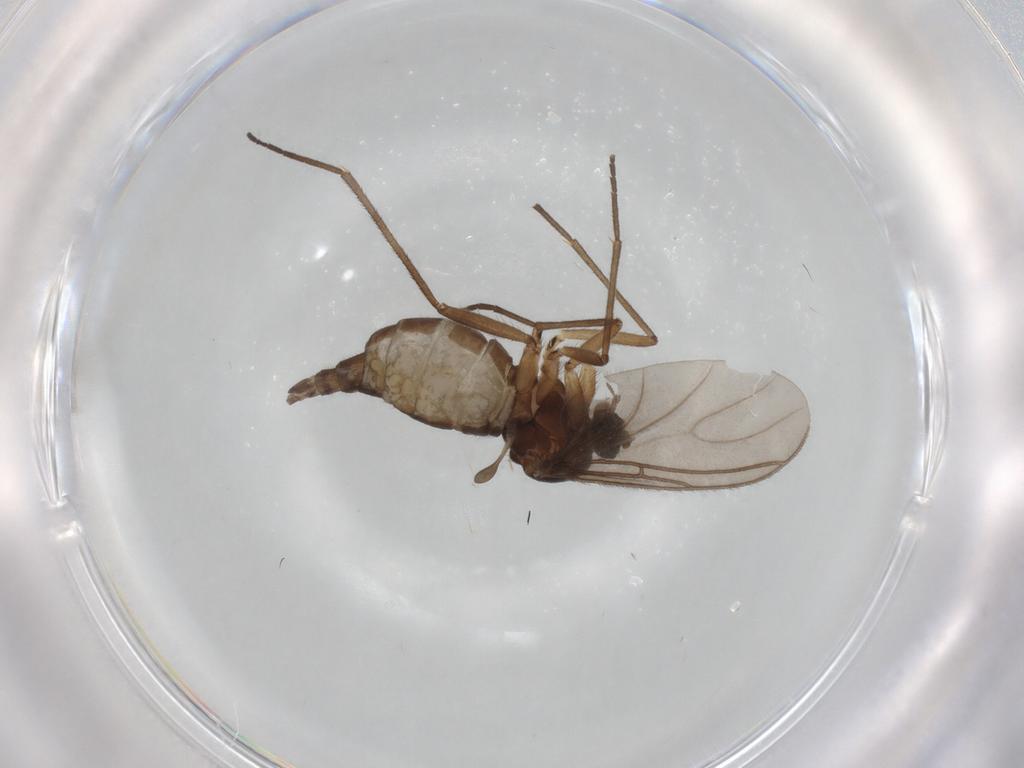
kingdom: Animalia
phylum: Arthropoda
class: Insecta
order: Diptera
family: Sciaridae
